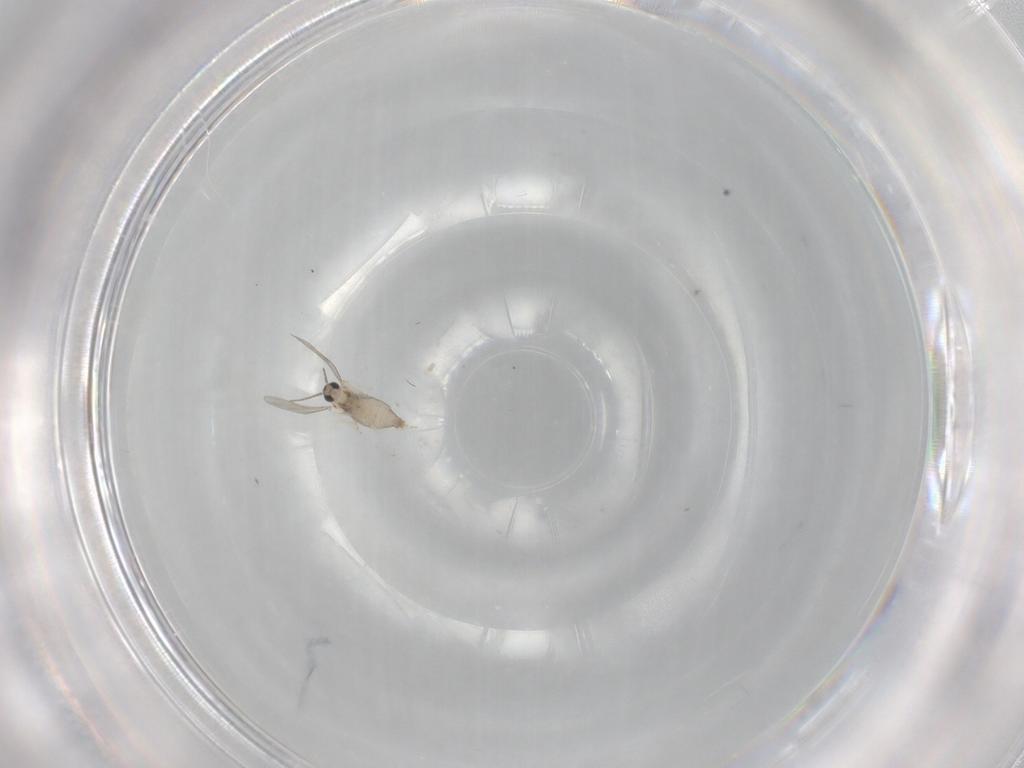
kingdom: Animalia
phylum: Arthropoda
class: Insecta
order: Diptera
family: Cecidomyiidae
